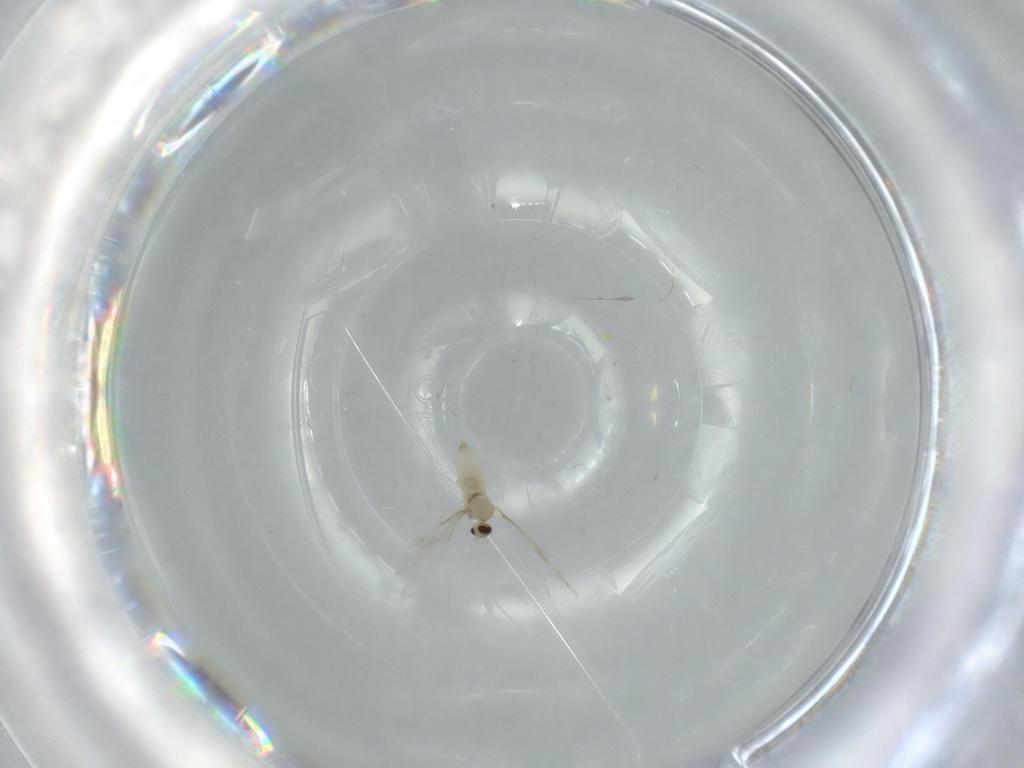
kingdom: Animalia
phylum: Arthropoda
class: Insecta
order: Diptera
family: Cecidomyiidae
